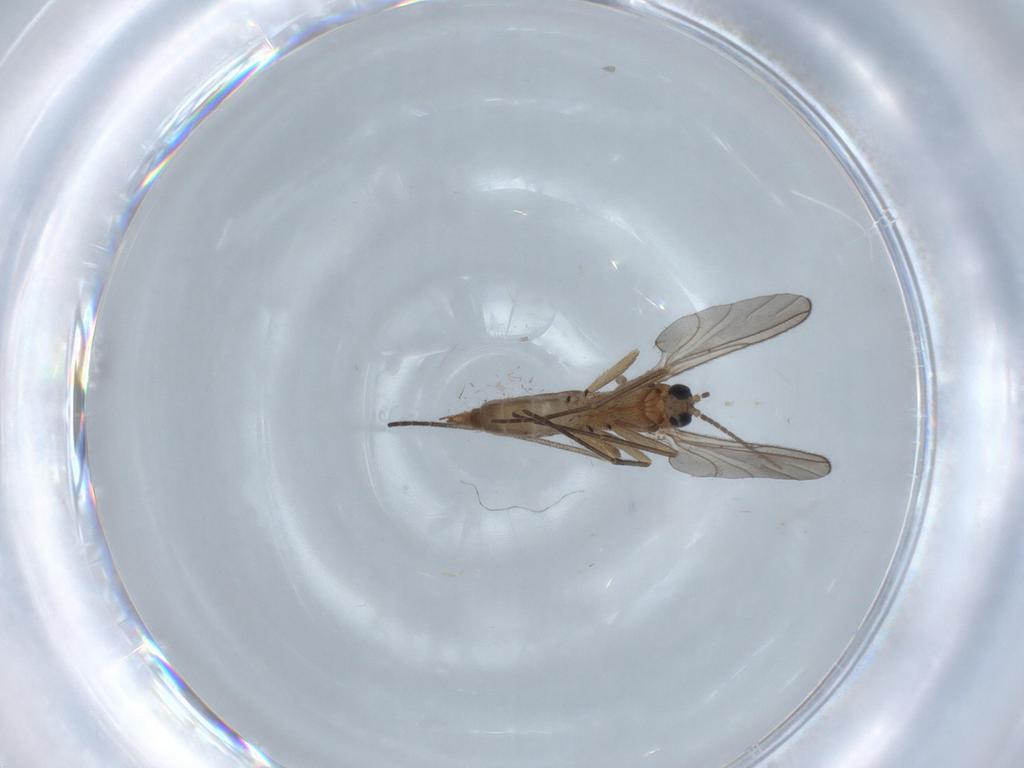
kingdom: Animalia
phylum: Arthropoda
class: Insecta
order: Diptera
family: Sciaridae
